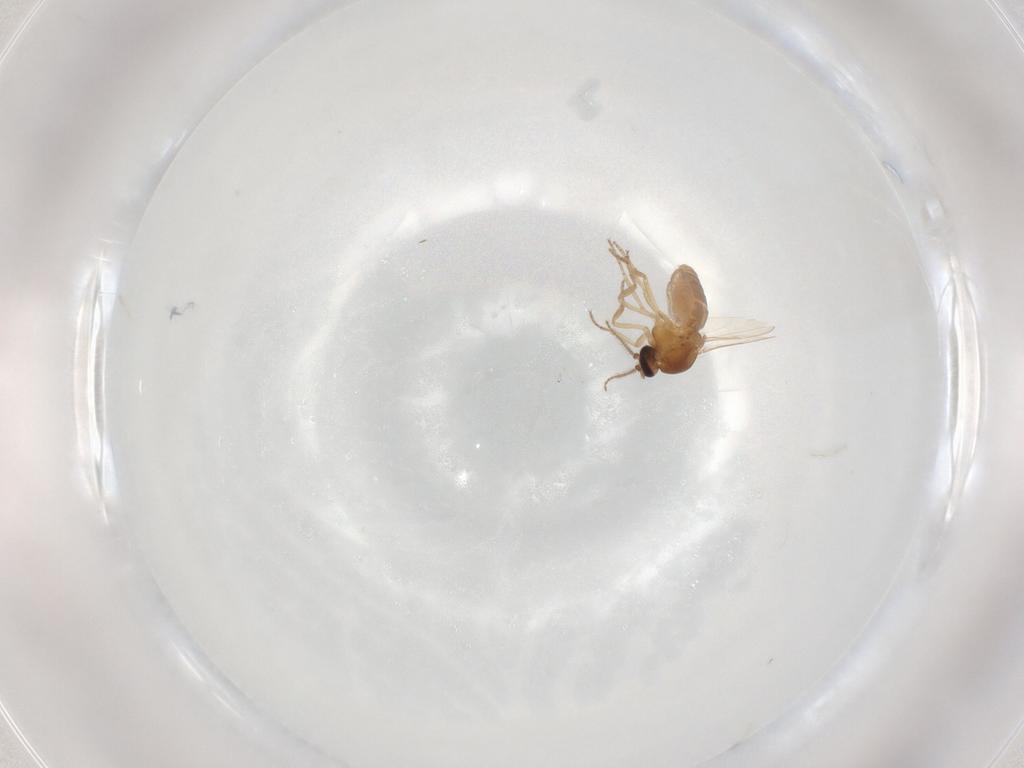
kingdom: Animalia
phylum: Arthropoda
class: Insecta
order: Diptera
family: Ceratopogonidae
